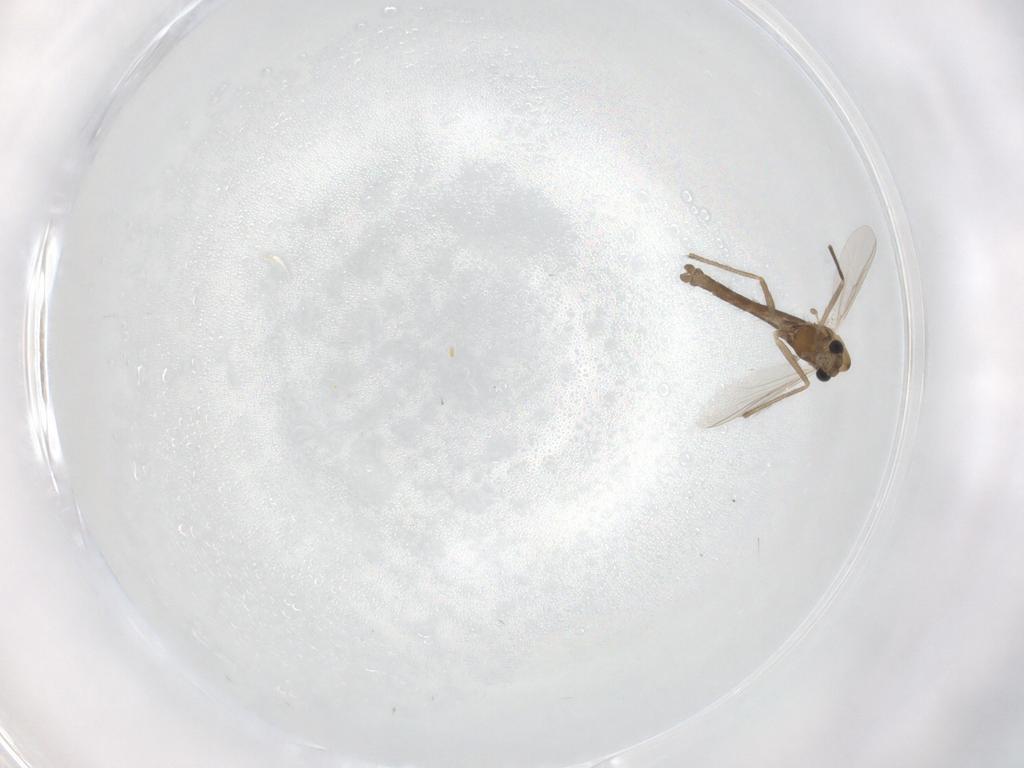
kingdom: Animalia
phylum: Arthropoda
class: Insecta
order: Diptera
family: Chironomidae
